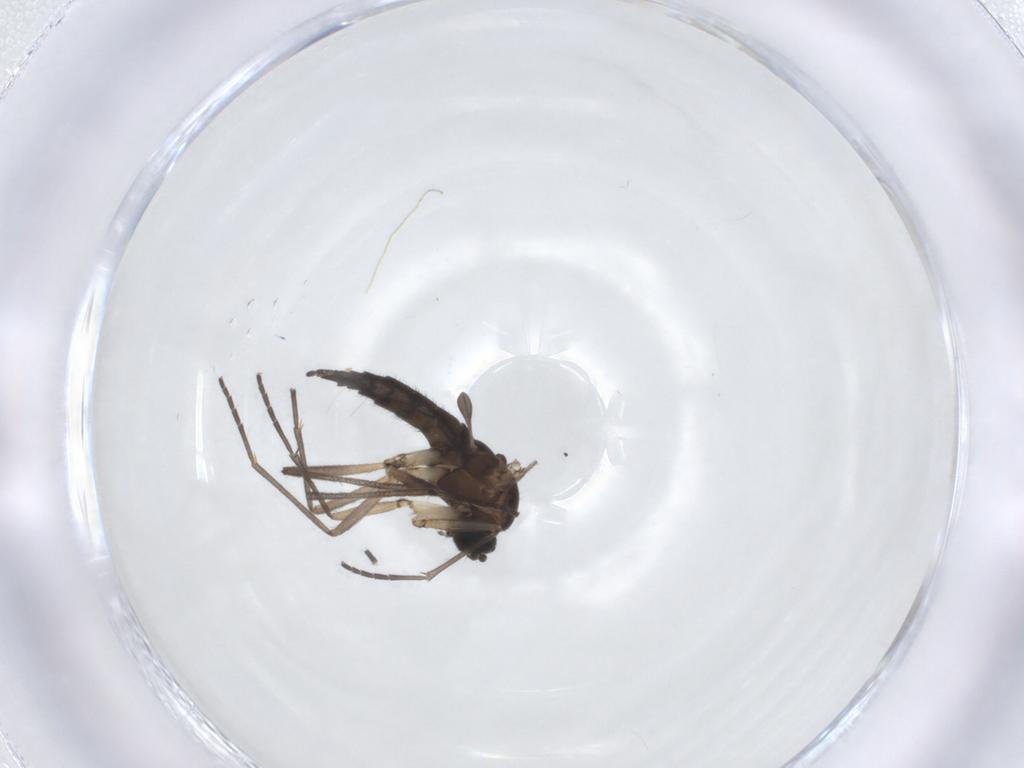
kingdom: Animalia
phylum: Arthropoda
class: Insecta
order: Diptera
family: Sciaridae
